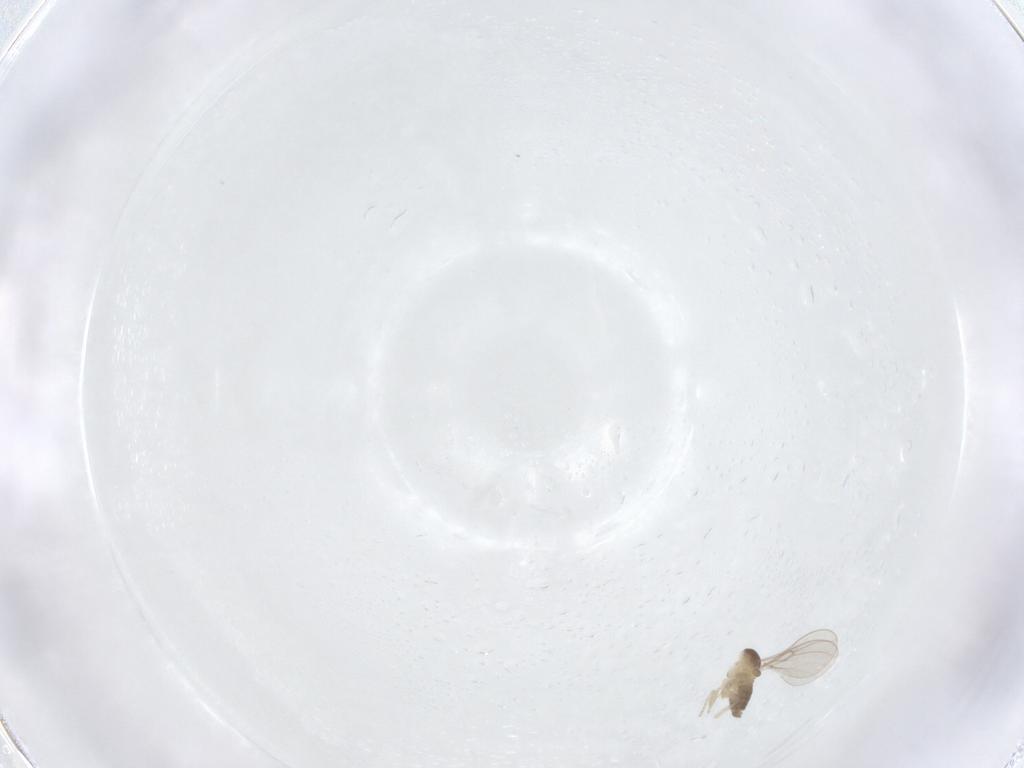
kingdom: Animalia
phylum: Arthropoda
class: Insecta
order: Diptera
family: Cecidomyiidae
